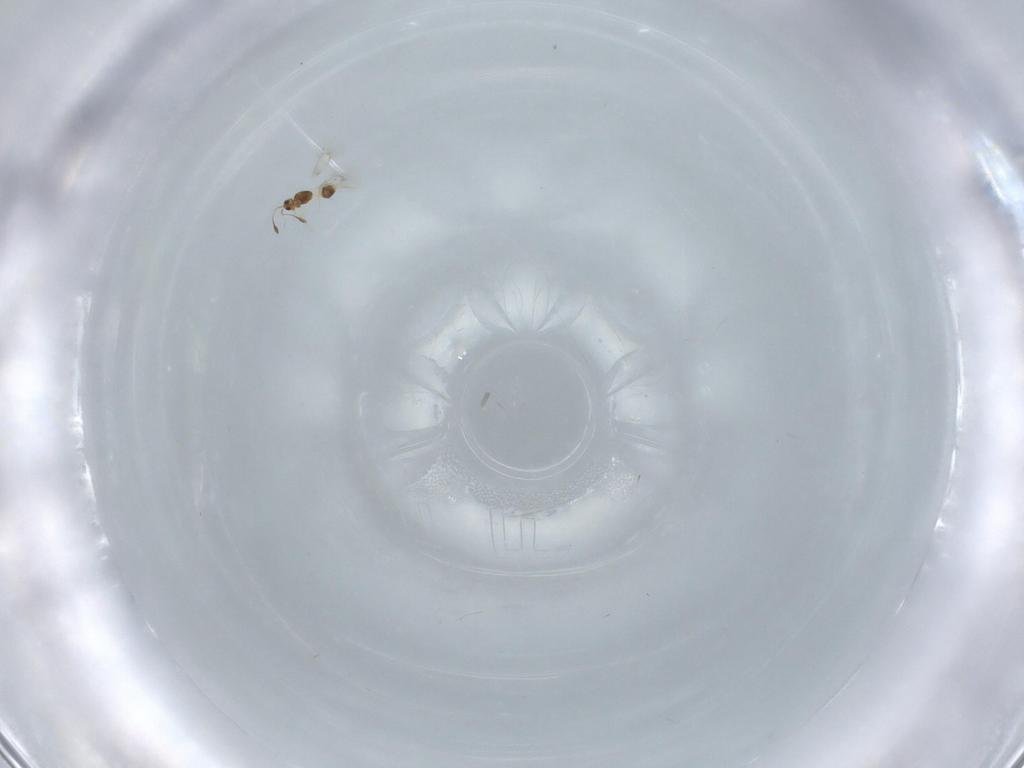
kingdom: Animalia
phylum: Arthropoda
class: Insecta
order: Hymenoptera
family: Mymarommatidae
